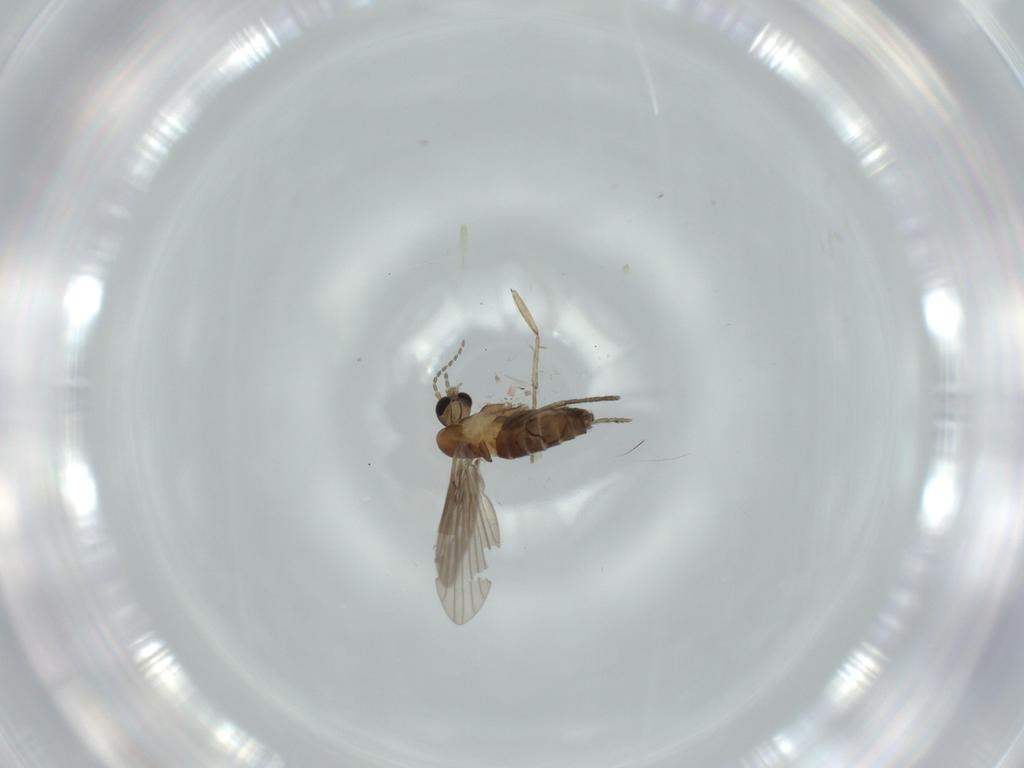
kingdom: Animalia
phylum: Arthropoda
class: Insecta
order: Diptera
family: Psychodidae
